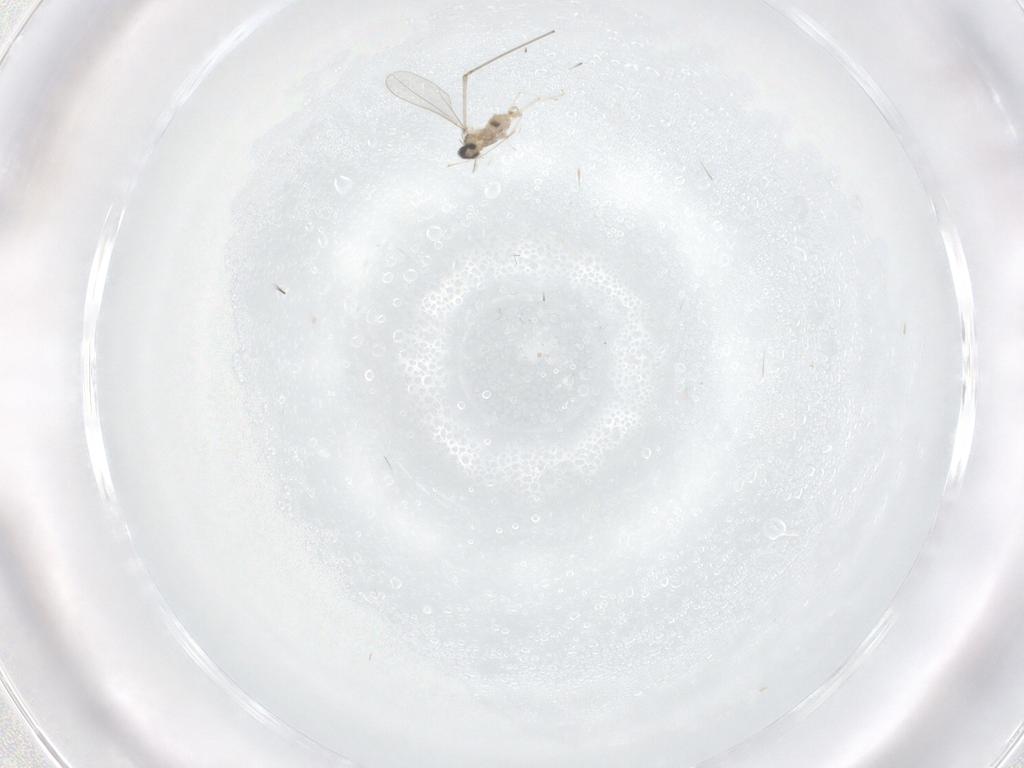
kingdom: Animalia
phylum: Arthropoda
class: Insecta
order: Diptera
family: Cecidomyiidae
